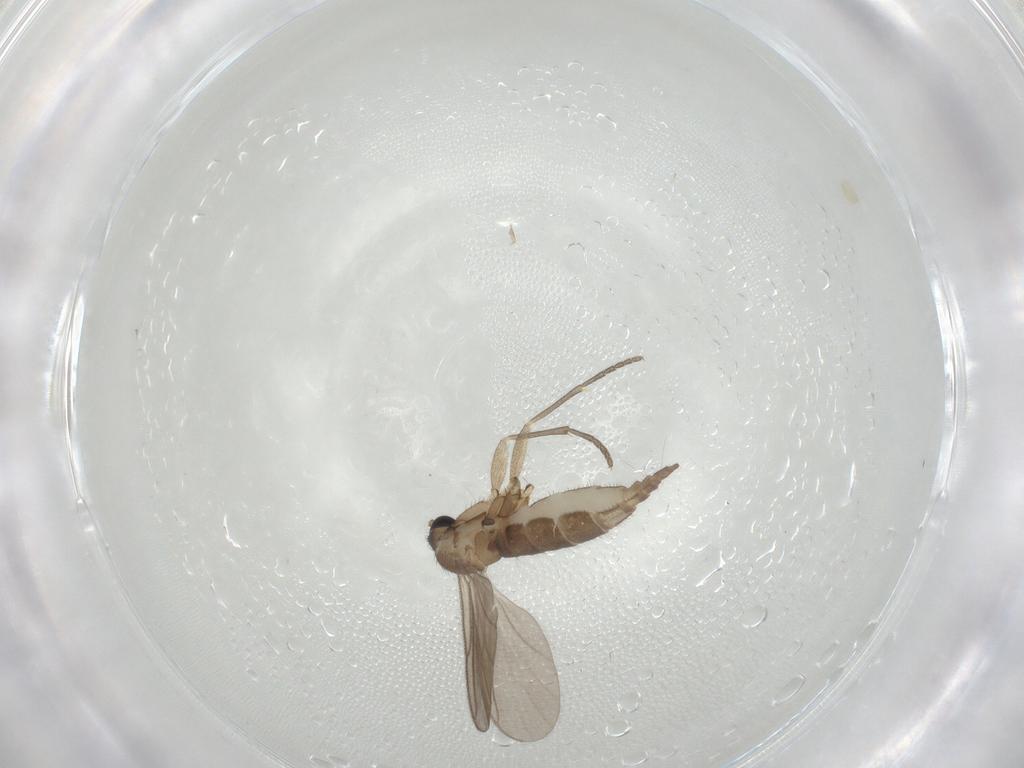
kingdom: Animalia
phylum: Arthropoda
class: Insecta
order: Diptera
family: Sciaridae
